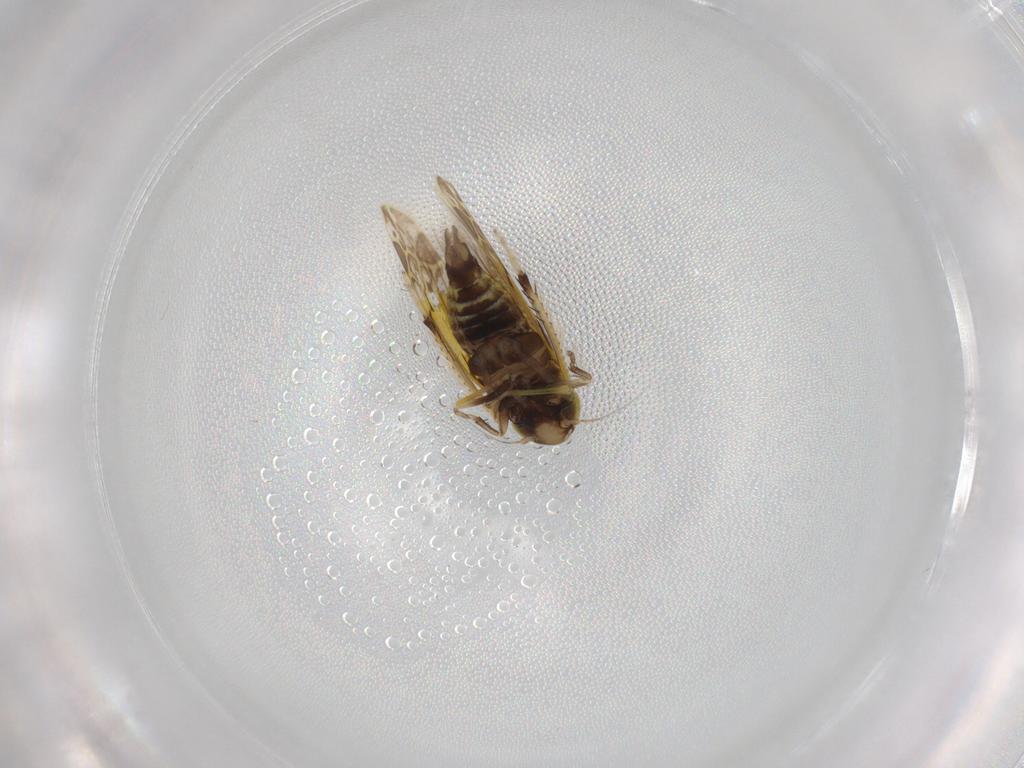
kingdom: Animalia
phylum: Arthropoda
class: Insecta
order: Hemiptera
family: Cicadellidae
